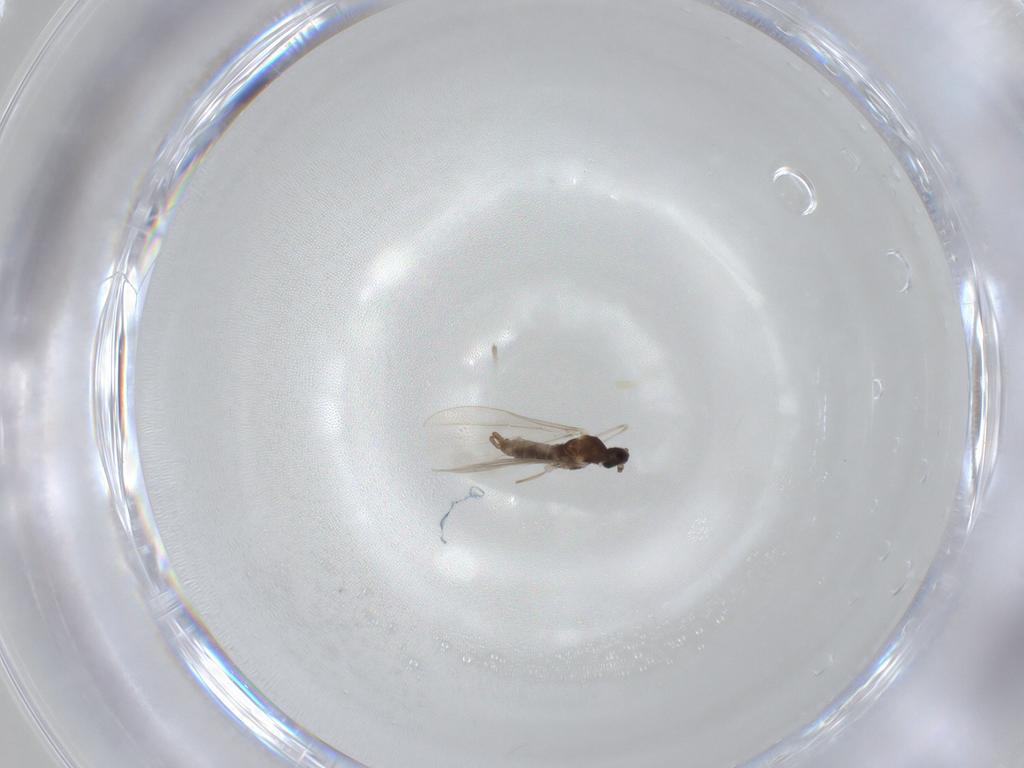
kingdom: Animalia
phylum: Arthropoda
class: Insecta
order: Diptera
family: Cecidomyiidae
